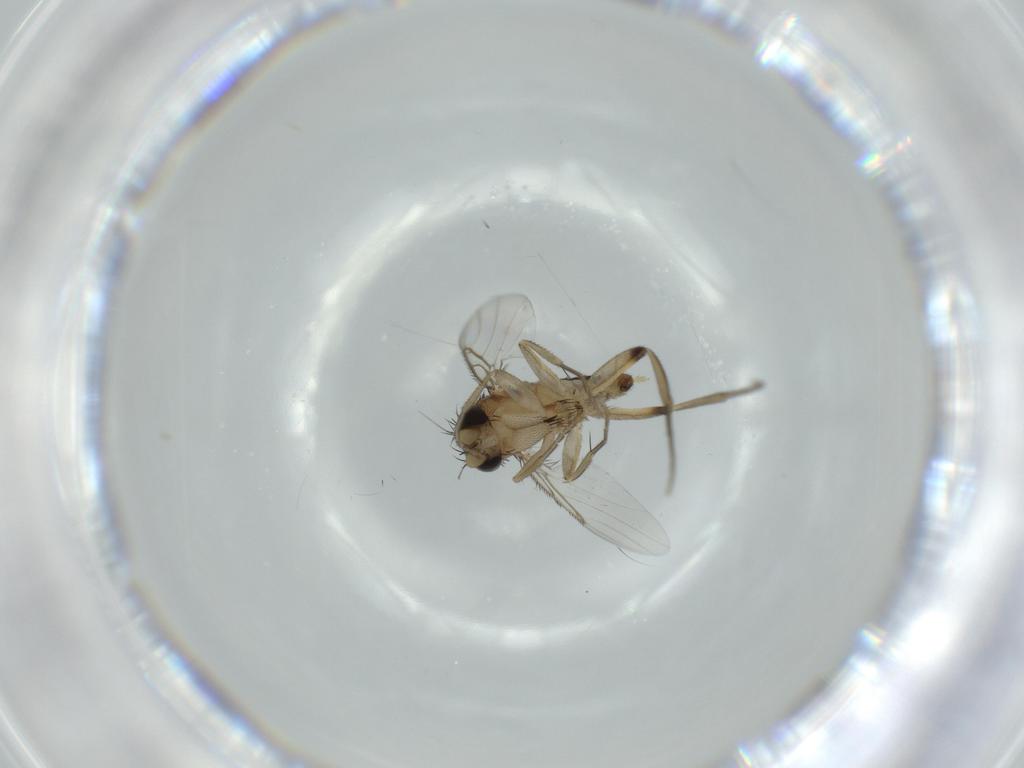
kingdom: Animalia
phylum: Arthropoda
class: Insecta
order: Diptera
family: Phoridae
